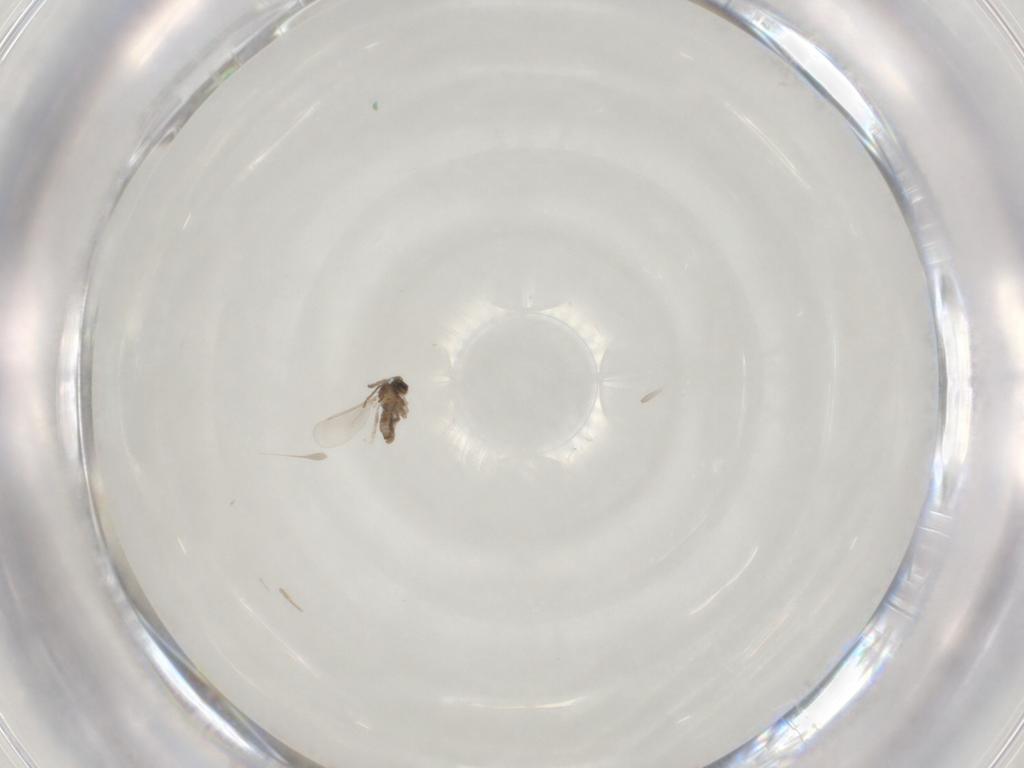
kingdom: Animalia
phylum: Arthropoda
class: Insecta
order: Diptera
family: Cecidomyiidae
